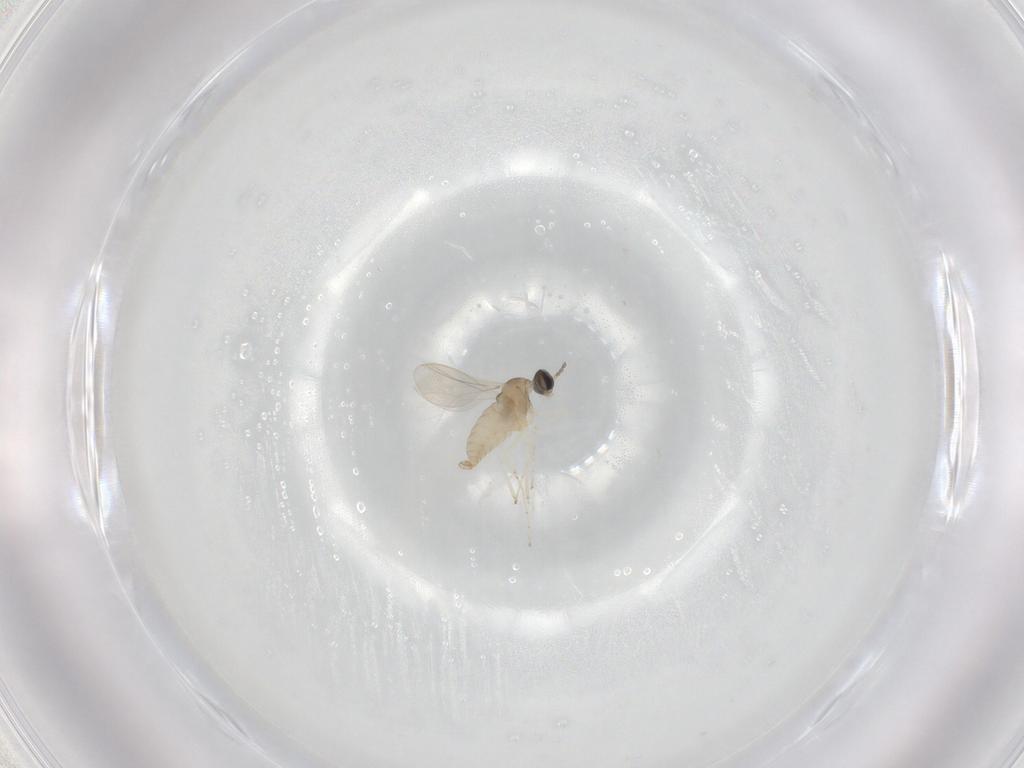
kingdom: Animalia
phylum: Arthropoda
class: Insecta
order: Diptera
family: Cecidomyiidae
